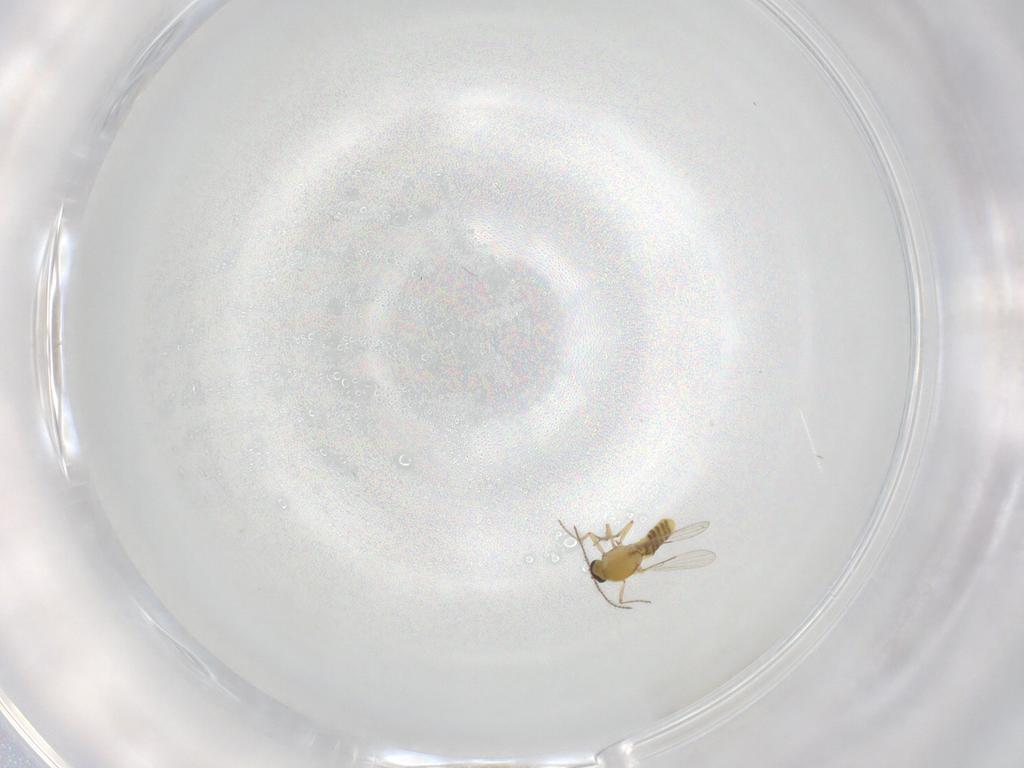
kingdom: Animalia
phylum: Arthropoda
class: Insecta
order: Diptera
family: Ceratopogonidae
